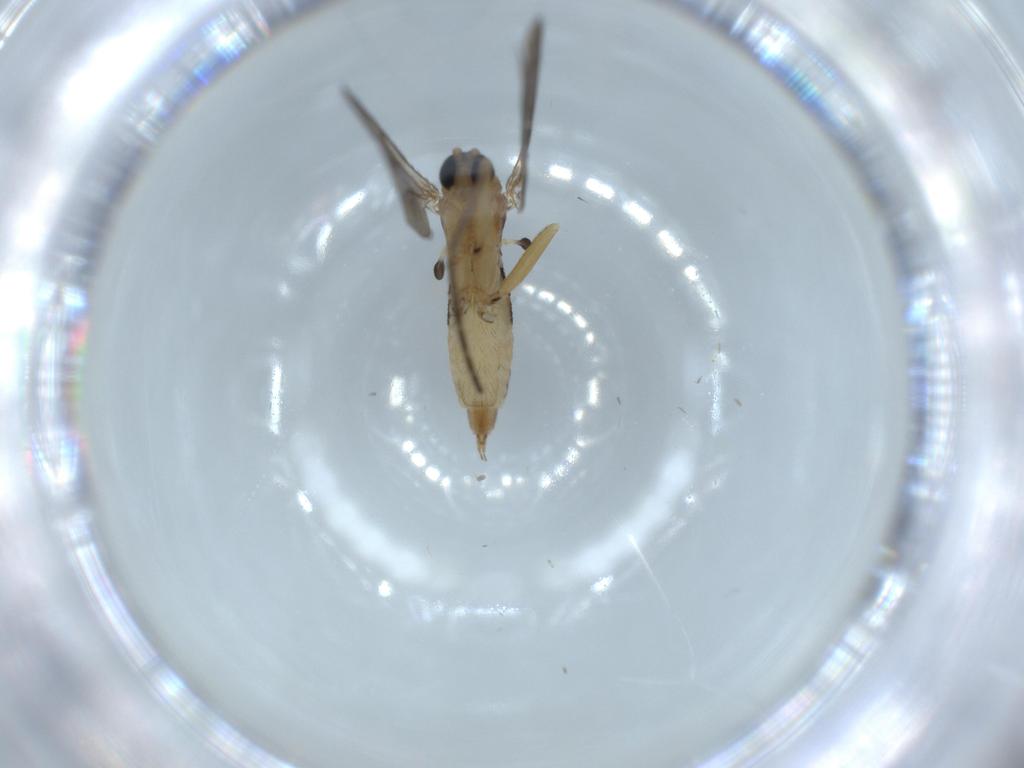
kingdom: Animalia
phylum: Arthropoda
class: Insecta
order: Diptera
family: Sciaridae
